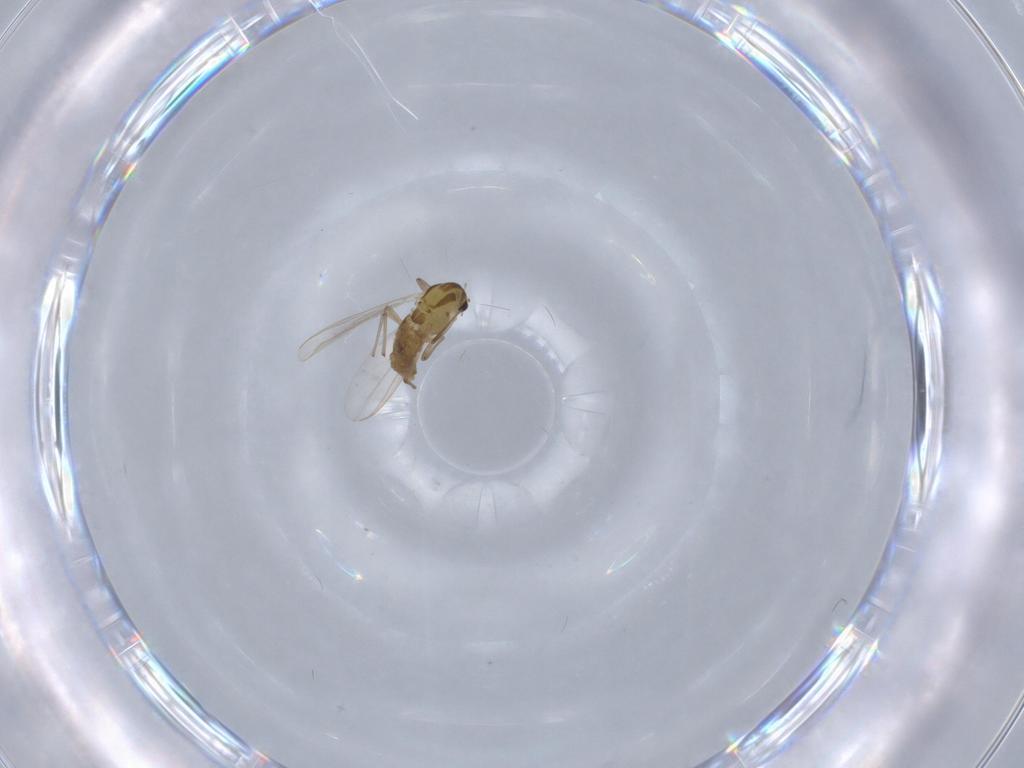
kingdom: Animalia
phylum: Arthropoda
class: Insecta
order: Diptera
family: Chironomidae
